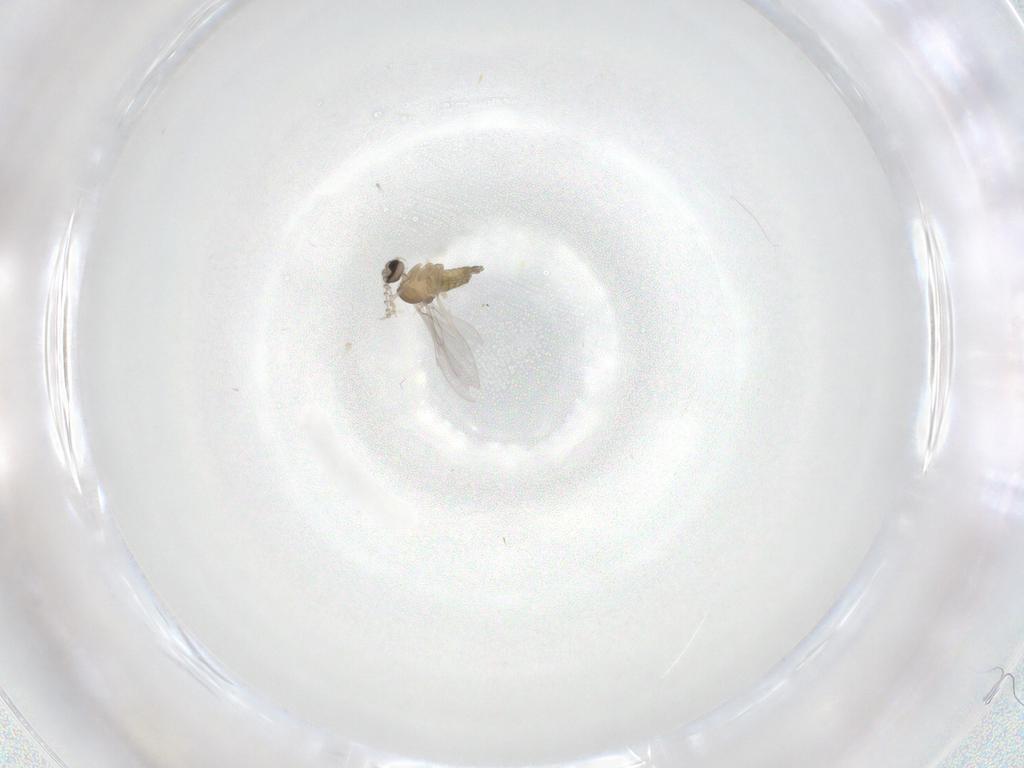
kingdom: Animalia
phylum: Arthropoda
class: Insecta
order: Diptera
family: Cecidomyiidae
